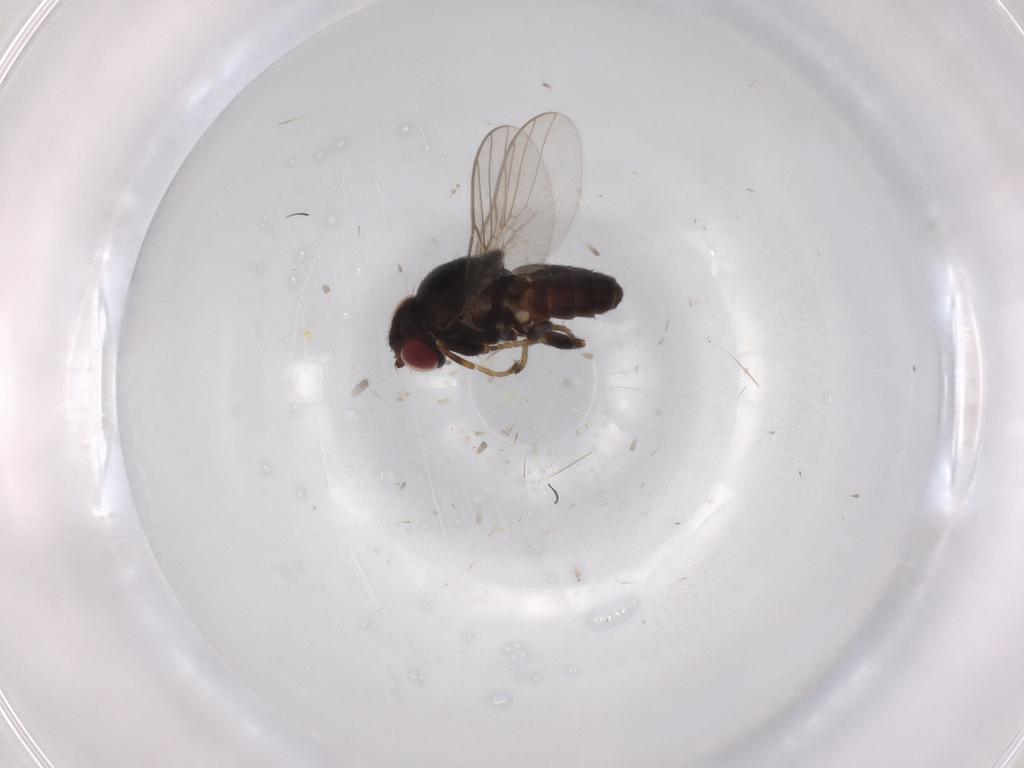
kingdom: Animalia
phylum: Arthropoda
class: Insecta
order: Diptera
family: Chloropidae
